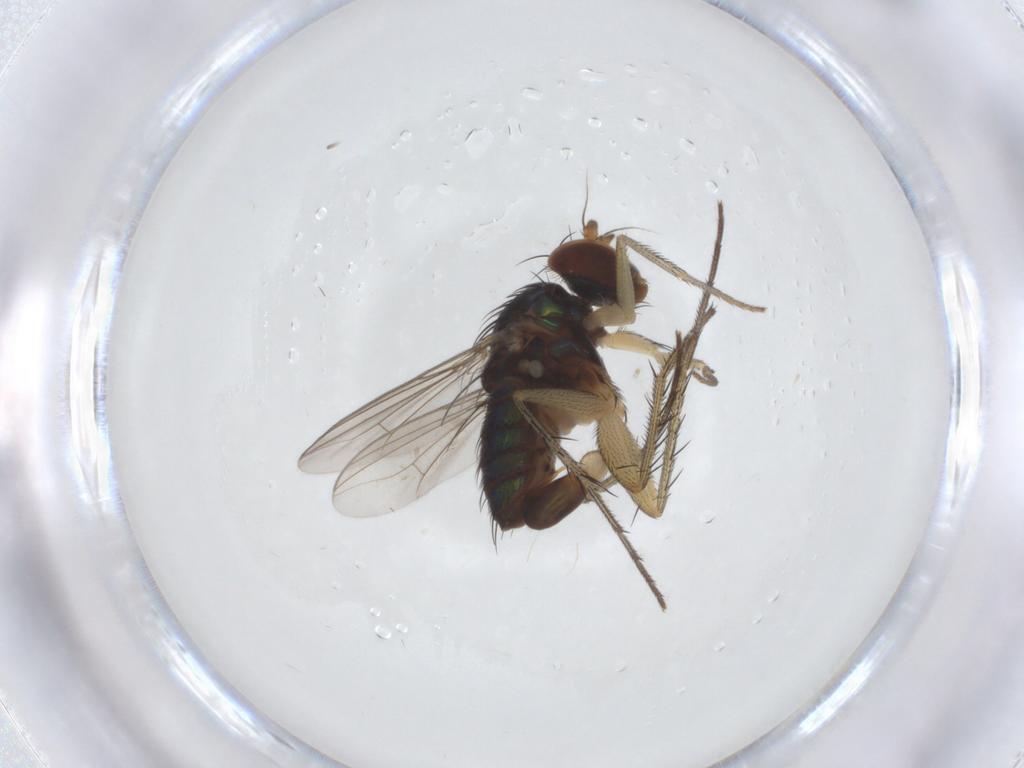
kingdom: Animalia
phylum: Arthropoda
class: Insecta
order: Diptera
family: Dolichopodidae
